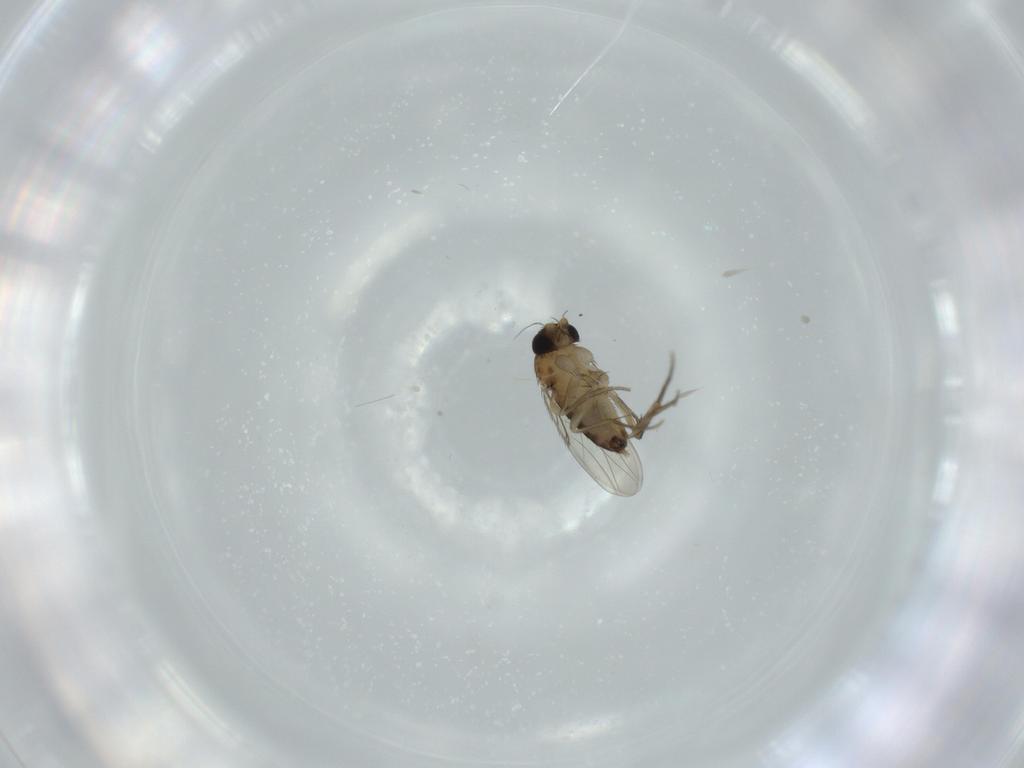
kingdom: Animalia
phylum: Arthropoda
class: Insecta
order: Diptera
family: Phoridae
